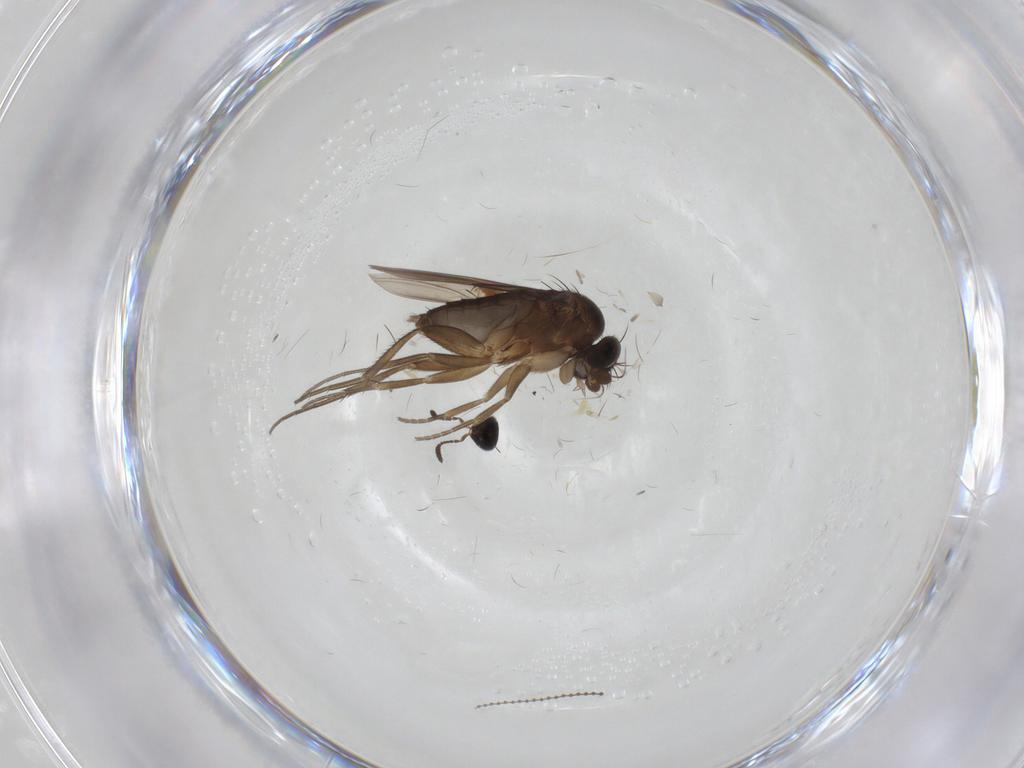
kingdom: Animalia
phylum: Arthropoda
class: Insecta
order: Diptera
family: Phoridae
